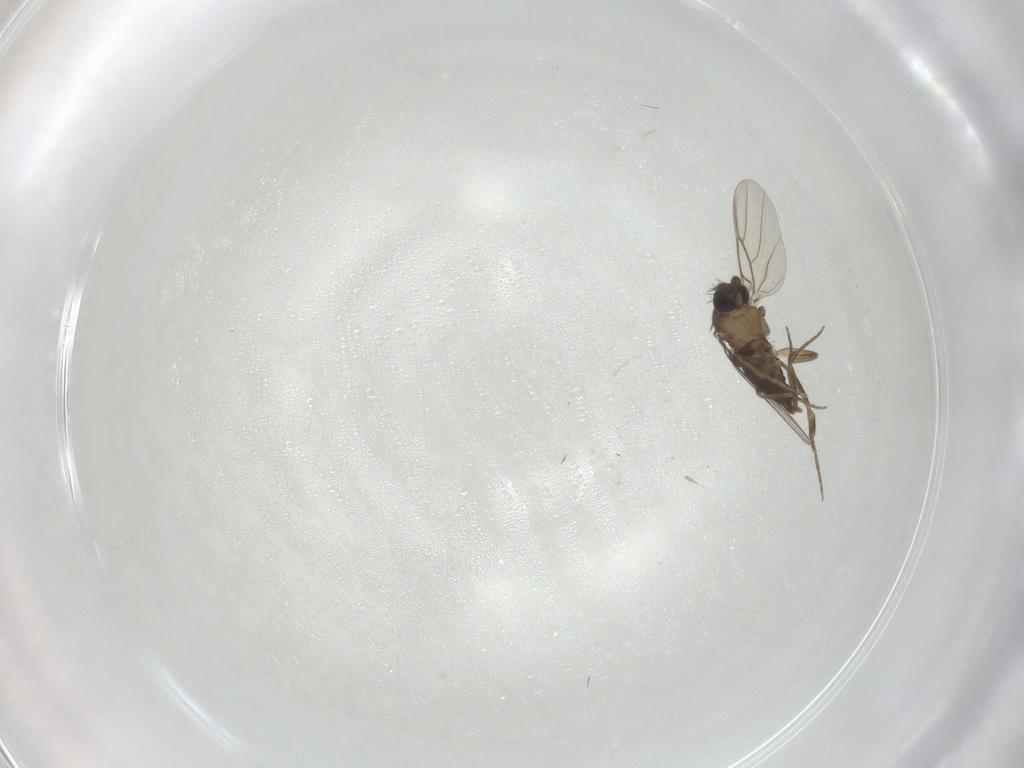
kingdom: Animalia
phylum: Arthropoda
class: Insecta
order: Diptera
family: Phoridae
